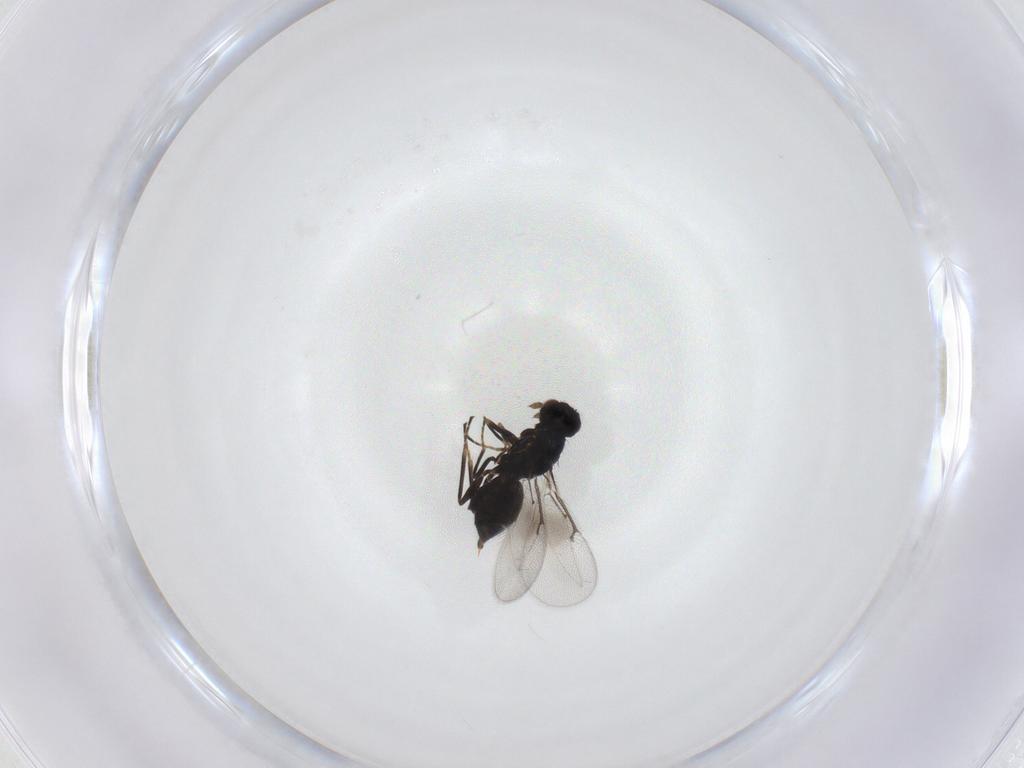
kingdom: Animalia
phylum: Arthropoda
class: Insecta
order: Hymenoptera
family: Eulophidae
